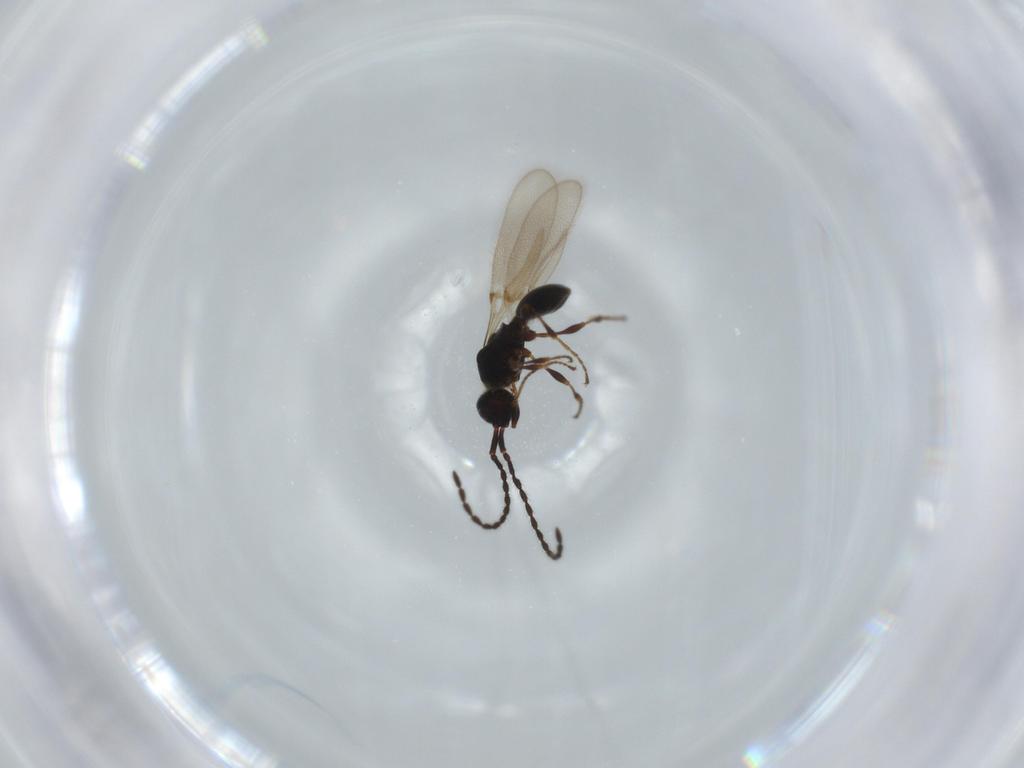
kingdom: Animalia
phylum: Arthropoda
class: Insecta
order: Hymenoptera
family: Diapriidae
